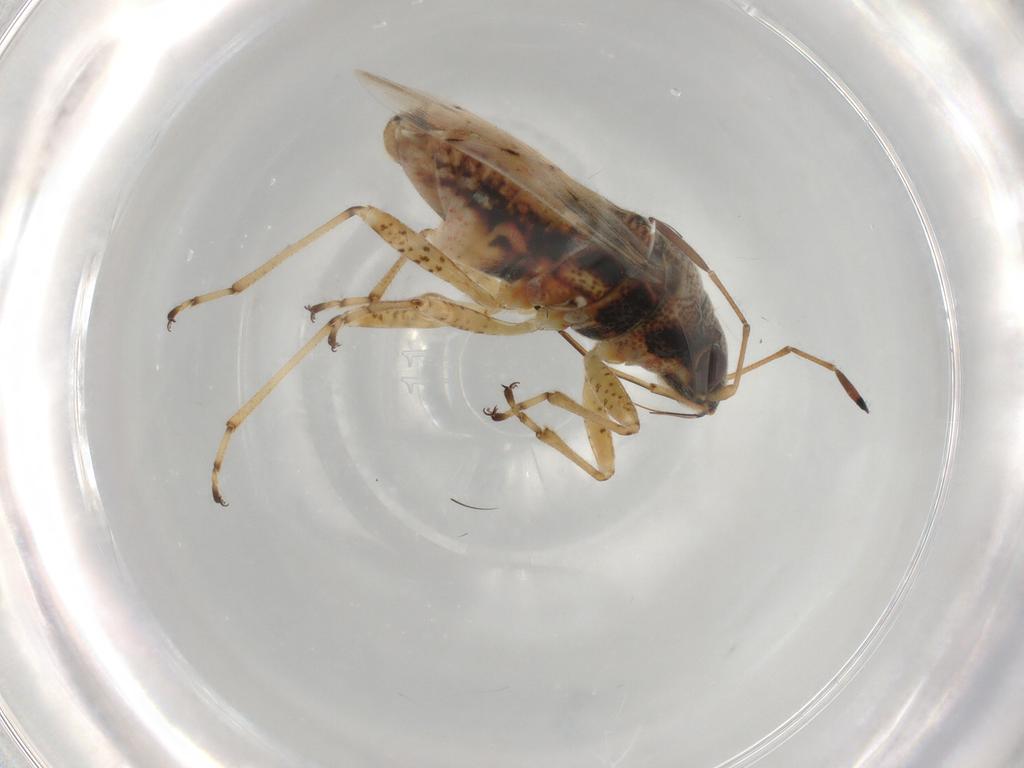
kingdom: Animalia
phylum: Arthropoda
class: Insecta
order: Hemiptera
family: Lygaeidae
